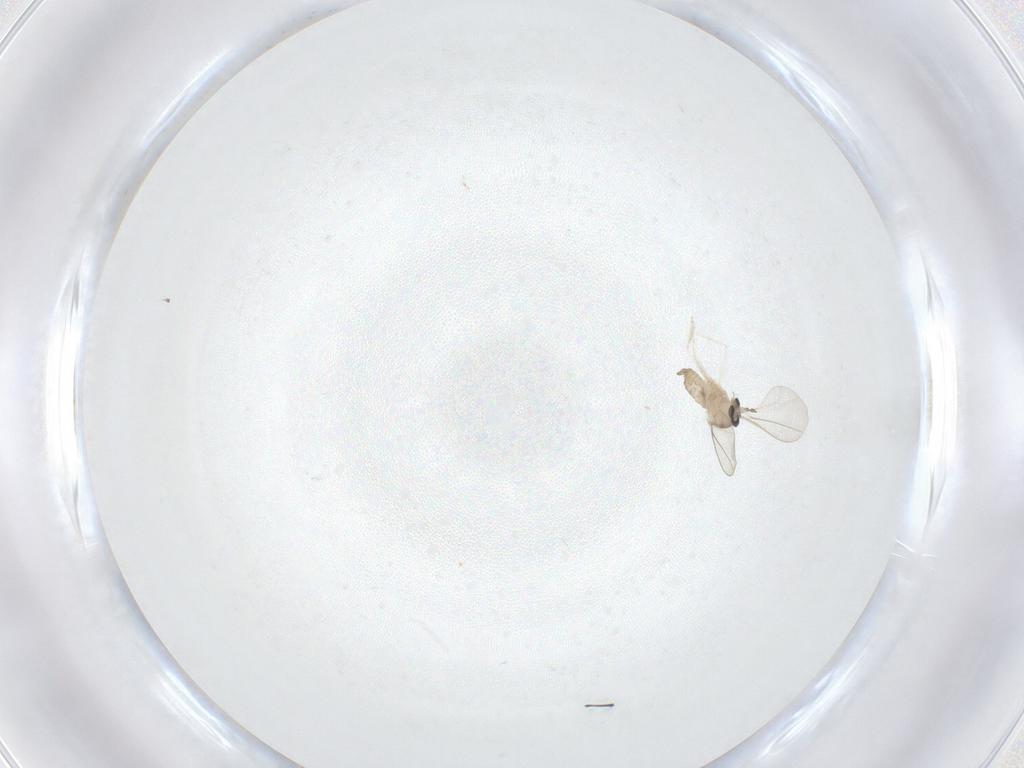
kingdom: Animalia
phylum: Arthropoda
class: Insecta
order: Diptera
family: Cecidomyiidae
